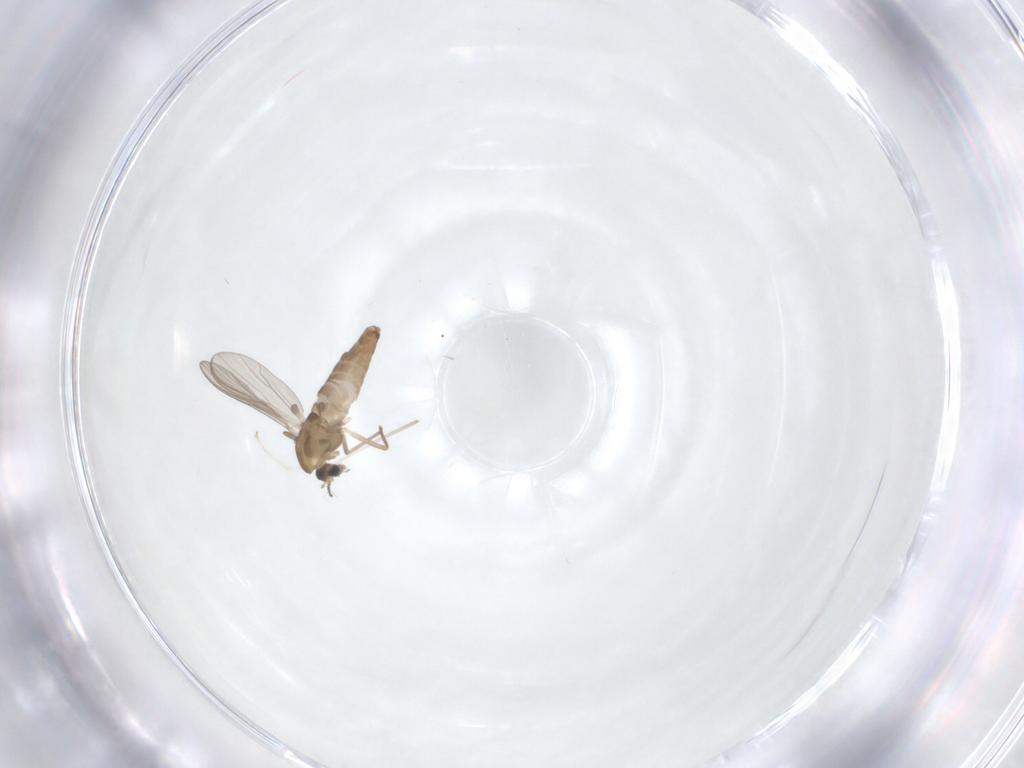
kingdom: Animalia
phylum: Arthropoda
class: Insecta
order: Diptera
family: Chironomidae
